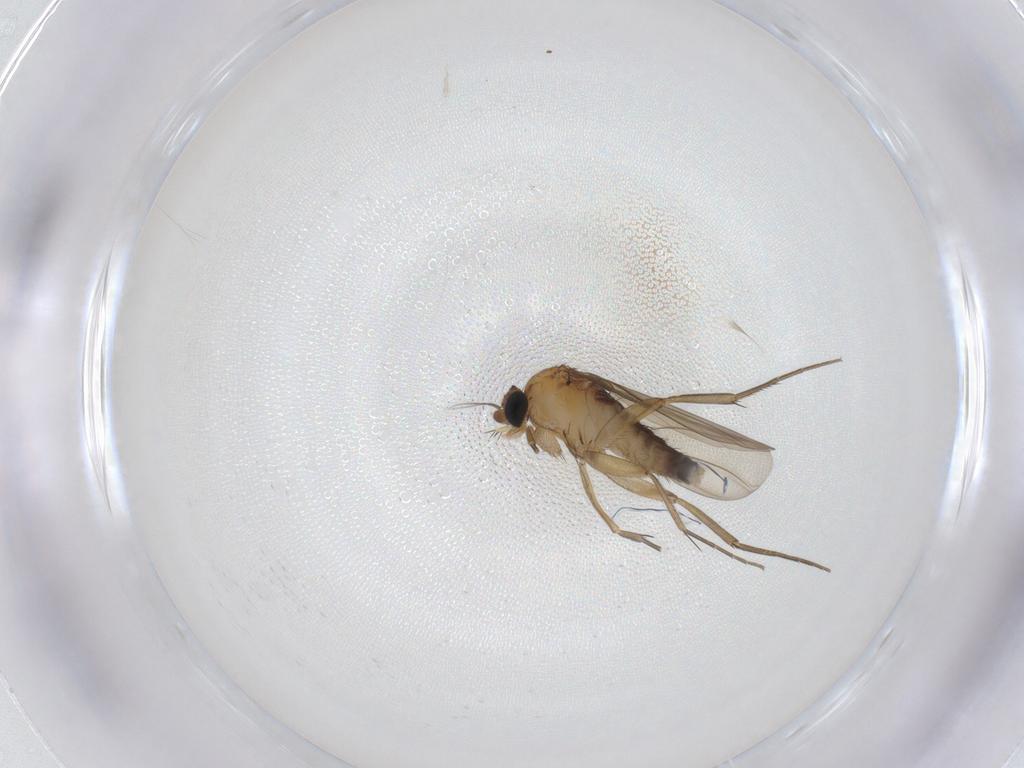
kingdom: Animalia
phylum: Arthropoda
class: Insecta
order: Diptera
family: Phoridae
